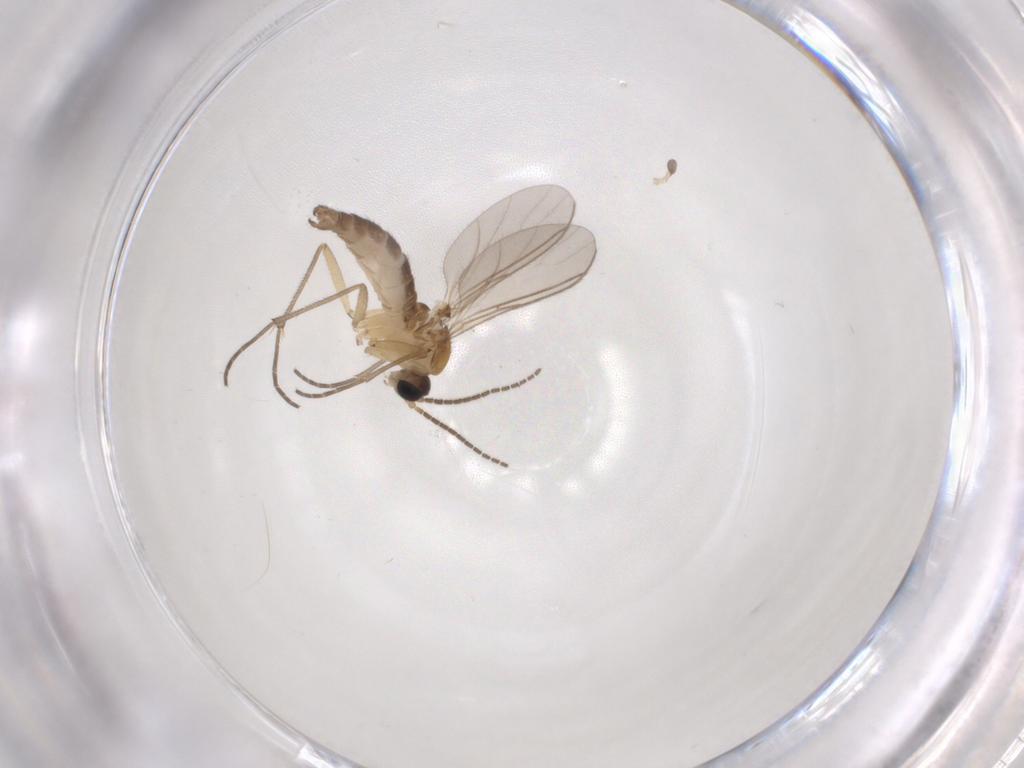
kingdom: Animalia
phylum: Arthropoda
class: Insecta
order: Diptera
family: Sciaridae
